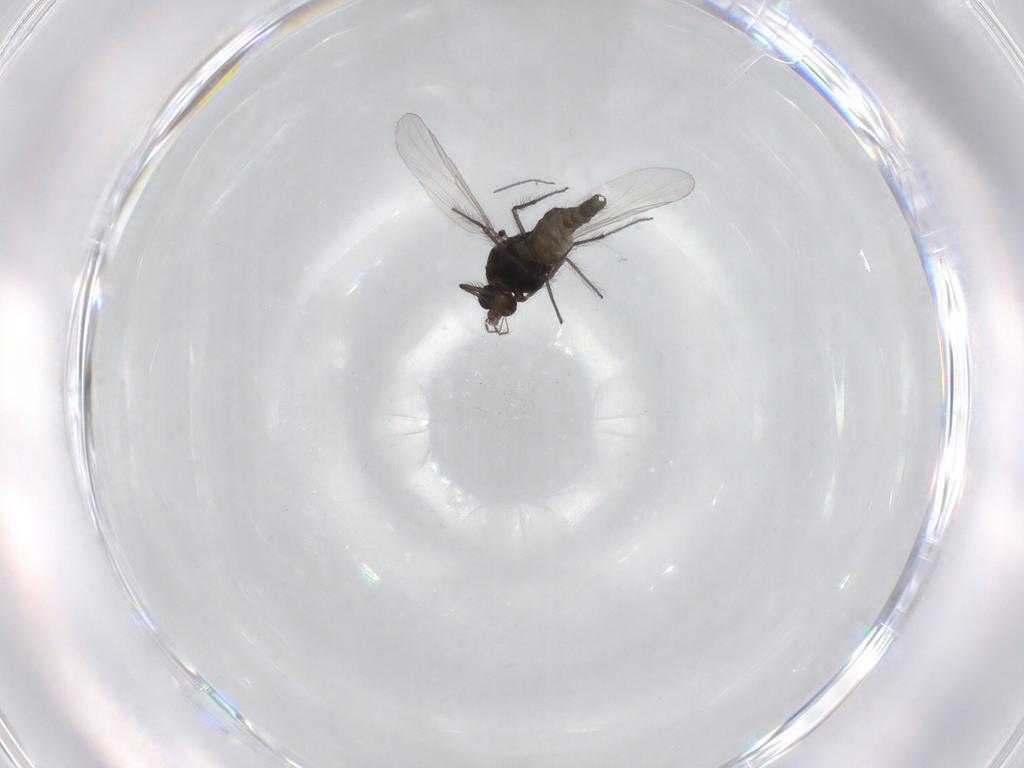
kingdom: Animalia
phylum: Arthropoda
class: Insecta
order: Diptera
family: Chironomidae
